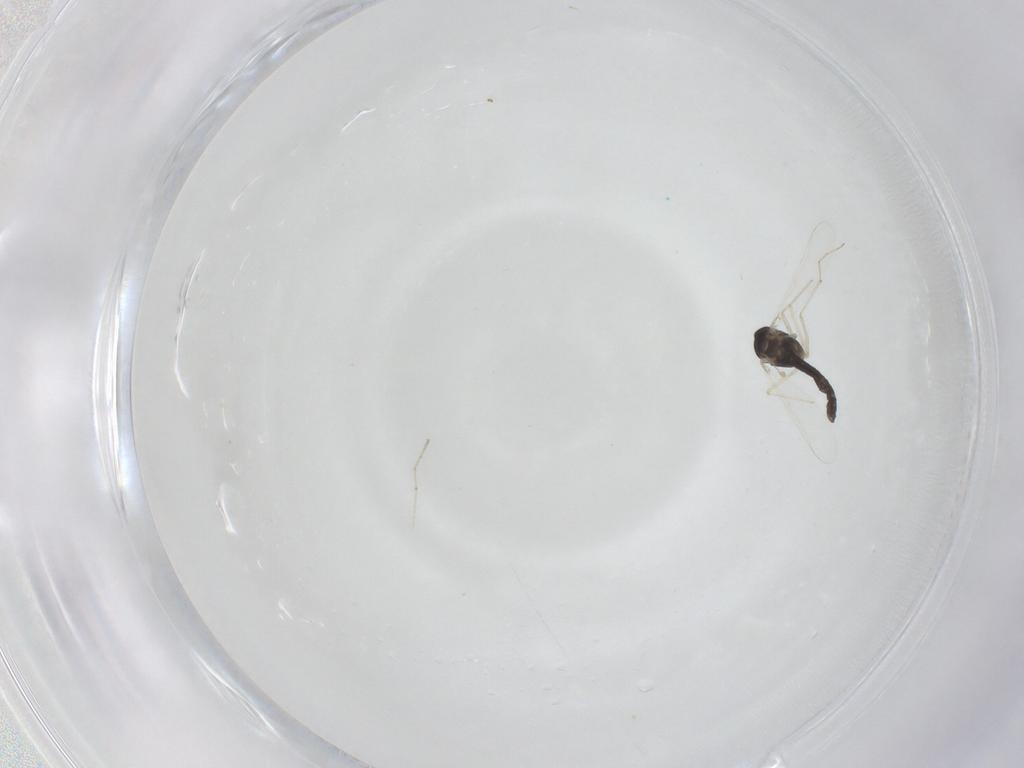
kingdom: Animalia
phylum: Arthropoda
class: Insecta
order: Diptera
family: Chironomidae
